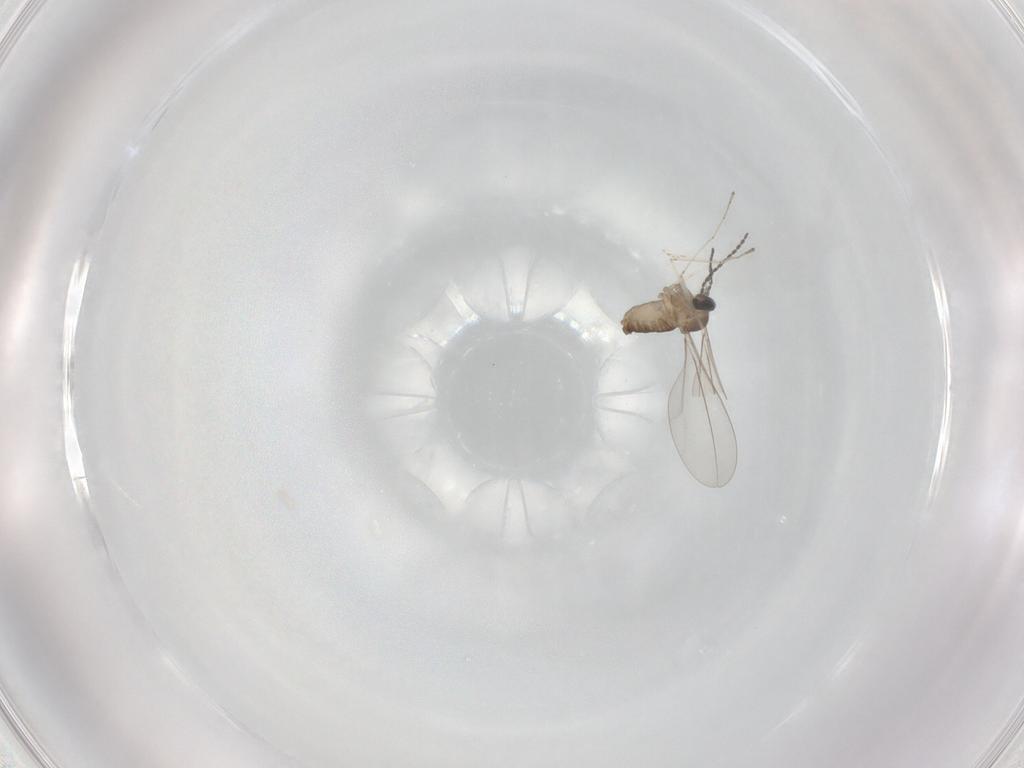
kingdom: Animalia
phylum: Arthropoda
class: Insecta
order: Diptera
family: Cecidomyiidae
